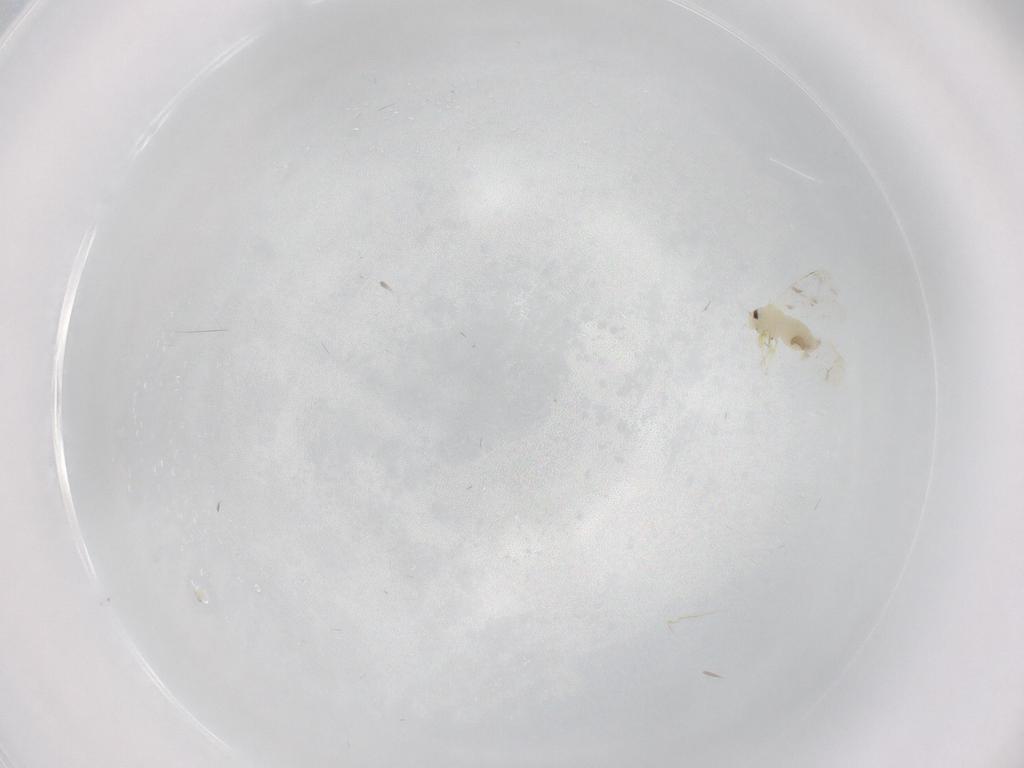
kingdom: Animalia
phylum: Arthropoda
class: Insecta
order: Hemiptera
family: Aleyrodidae
